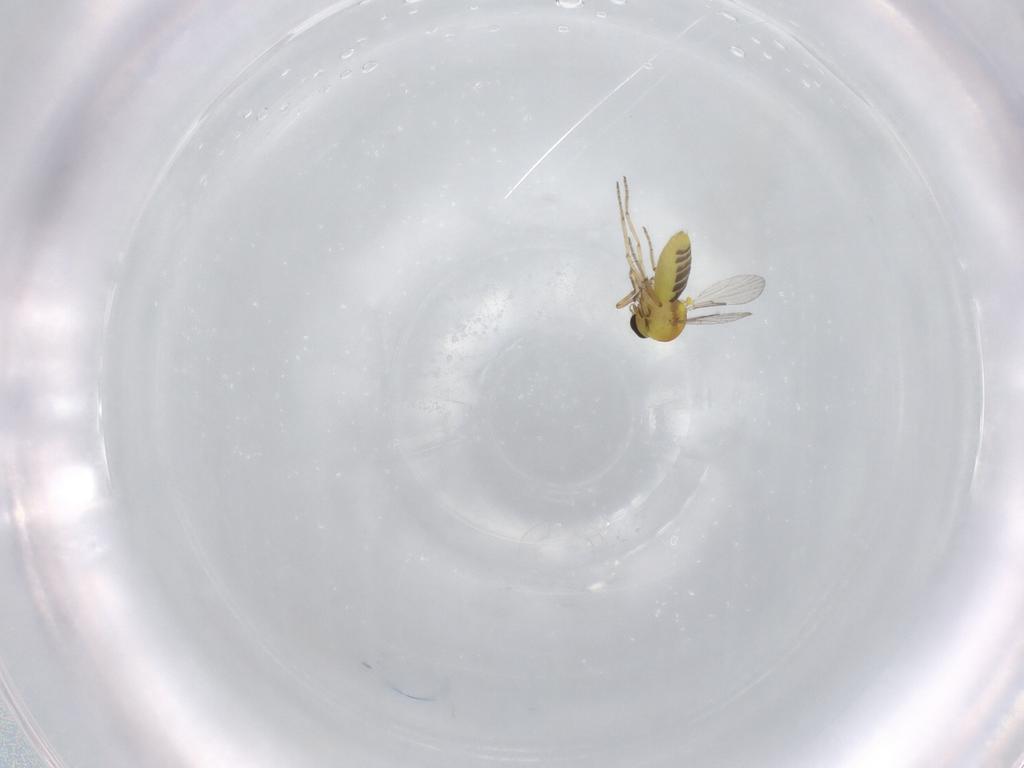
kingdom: Animalia
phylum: Arthropoda
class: Insecta
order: Diptera
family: Ceratopogonidae
